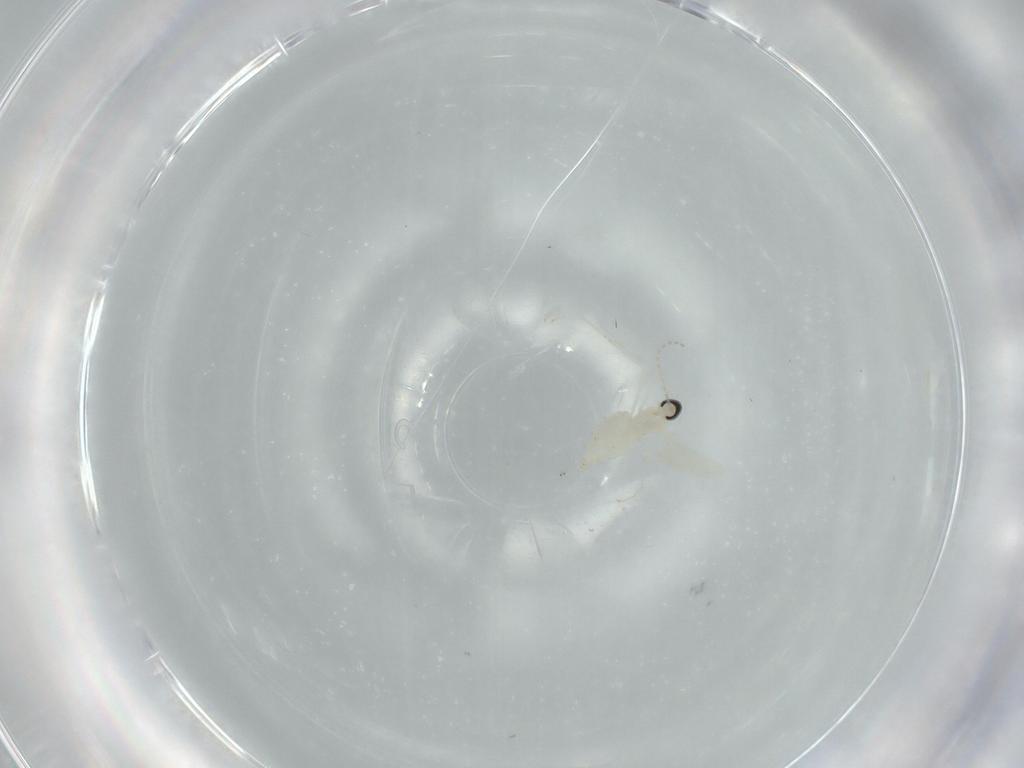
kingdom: Animalia
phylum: Arthropoda
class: Insecta
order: Diptera
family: Cecidomyiidae
